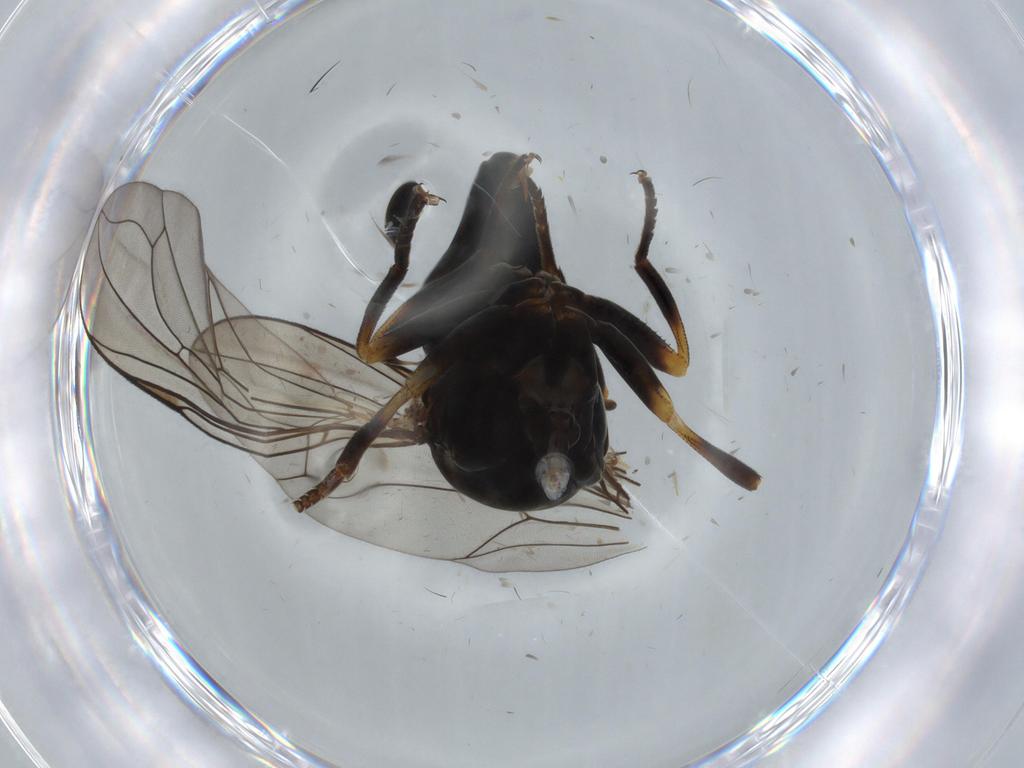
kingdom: Animalia
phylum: Arthropoda
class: Insecta
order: Diptera
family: Pipunculidae
